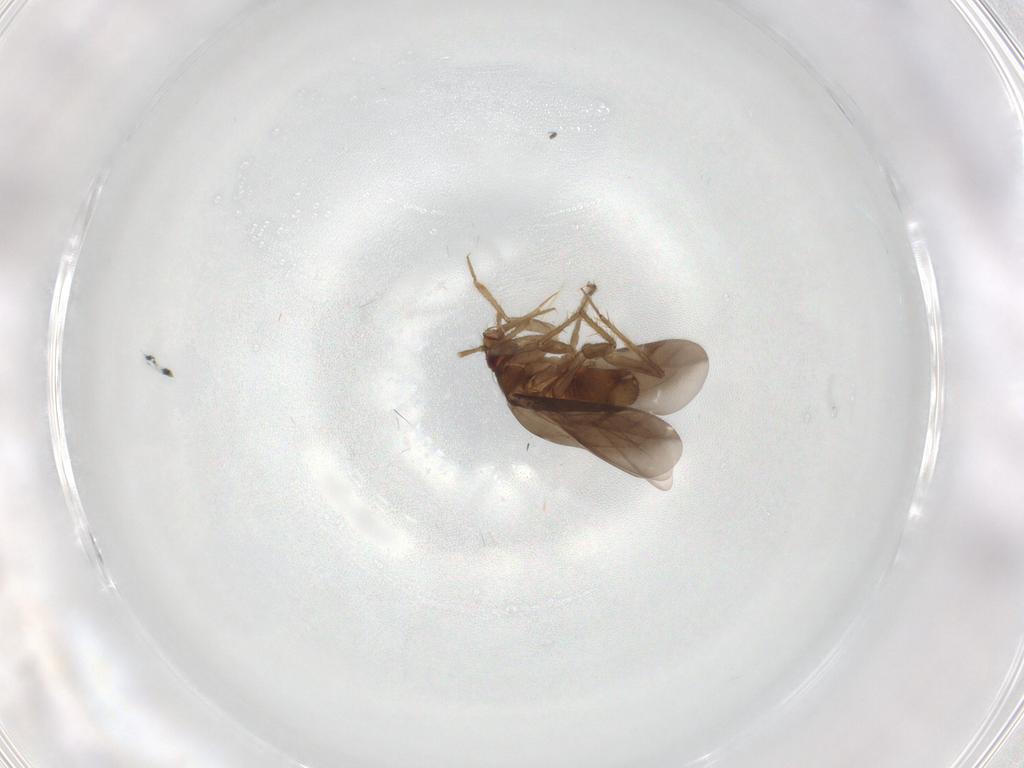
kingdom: Animalia
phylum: Arthropoda
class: Insecta
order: Hemiptera
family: Ceratocombidae
